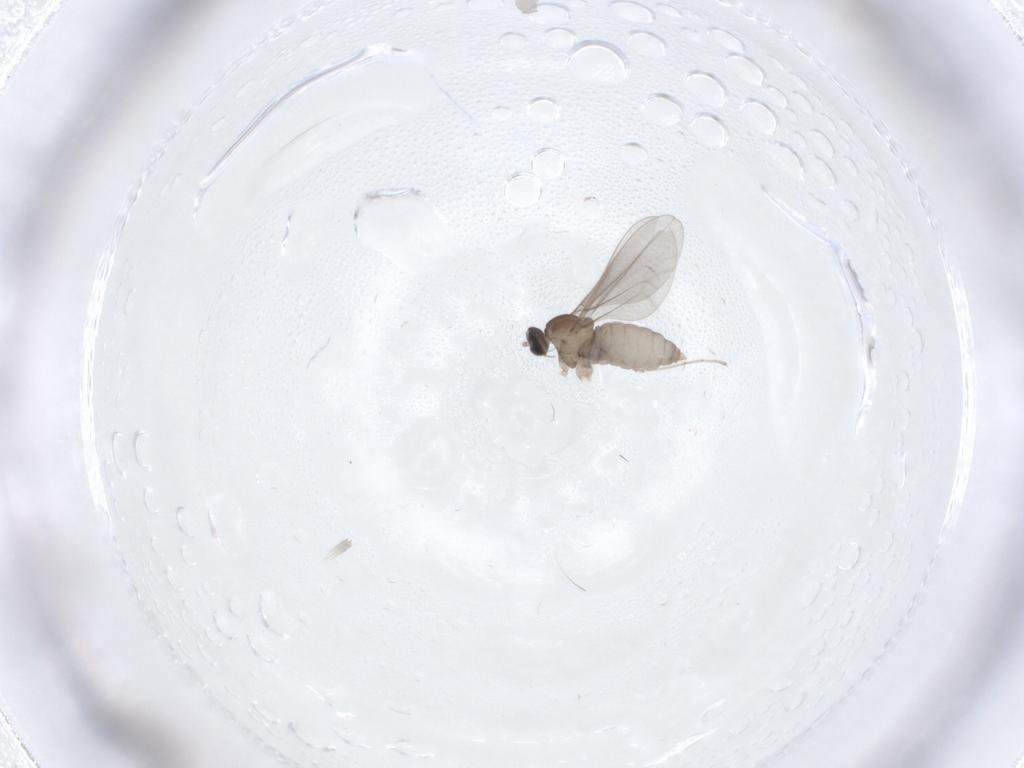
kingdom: Animalia
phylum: Arthropoda
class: Insecta
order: Diptera
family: Cecidomyiidae
